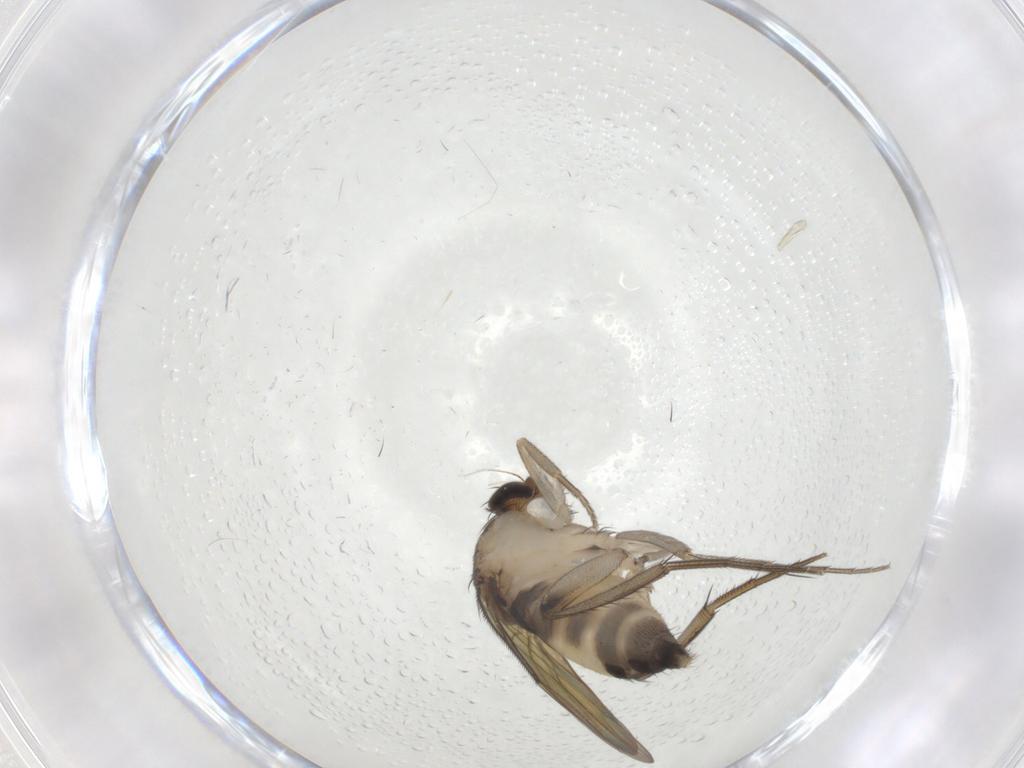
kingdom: Animalia
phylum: Arthropoda
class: Insecta
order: Diptera
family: Phoridae
